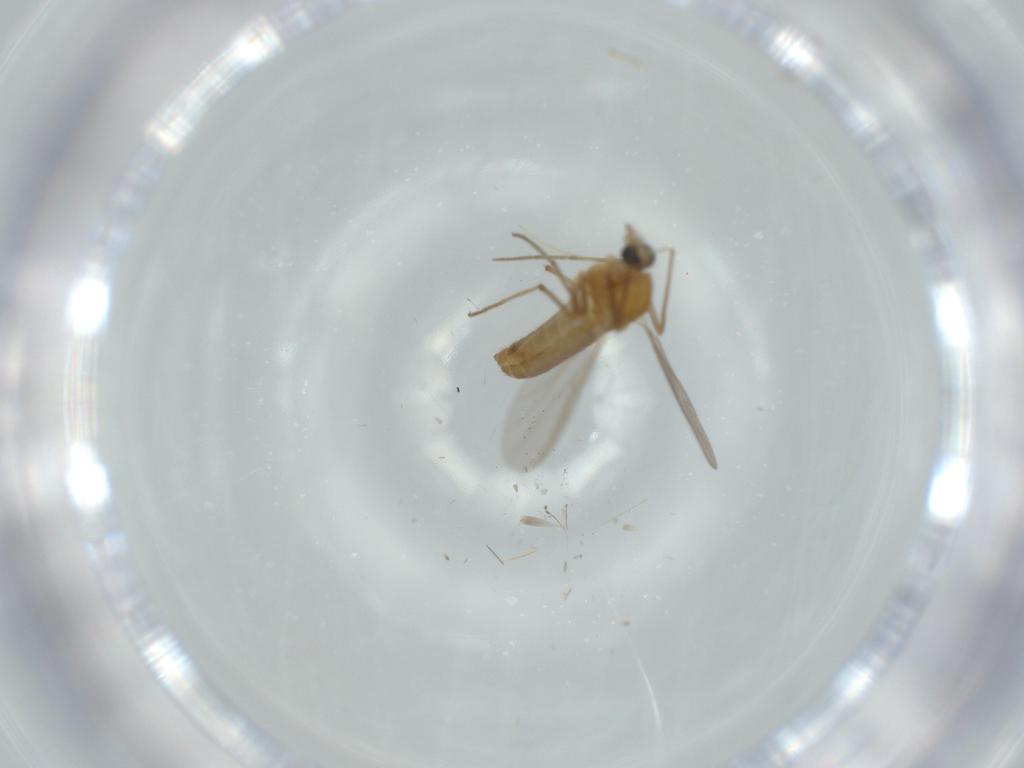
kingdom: Animalia
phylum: Arthropoda
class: Insecta
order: Diptera
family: Chironomidae
